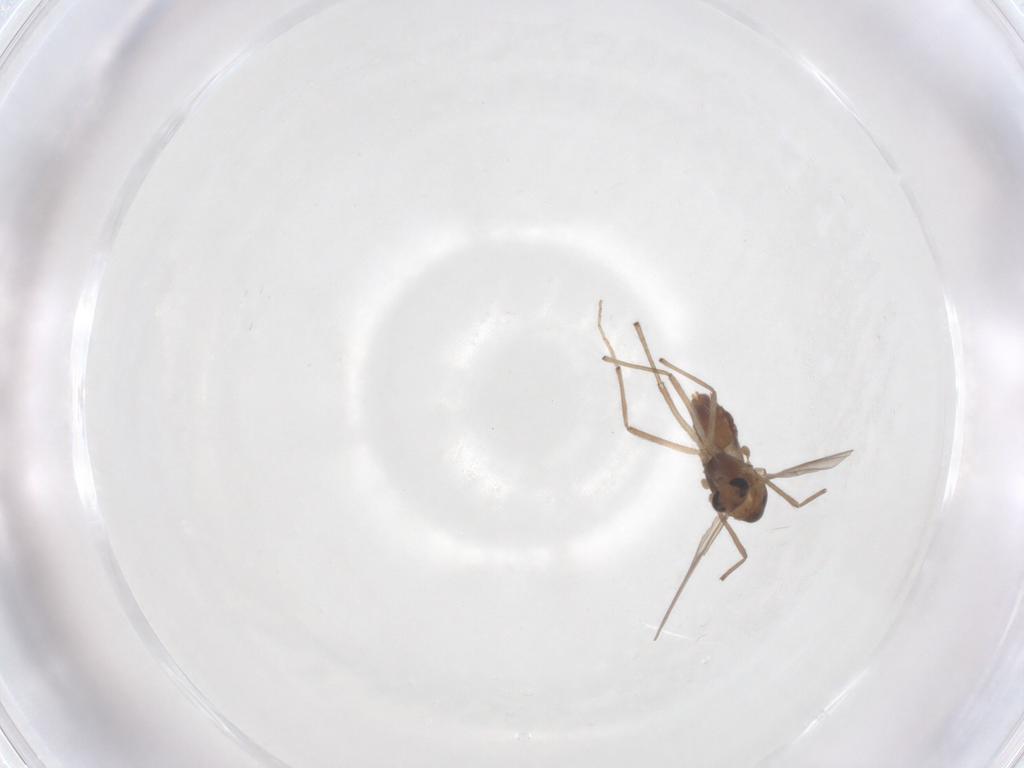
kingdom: Animalia
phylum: Arthropoda
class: Insecta
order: Diptera
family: Chironomidae
